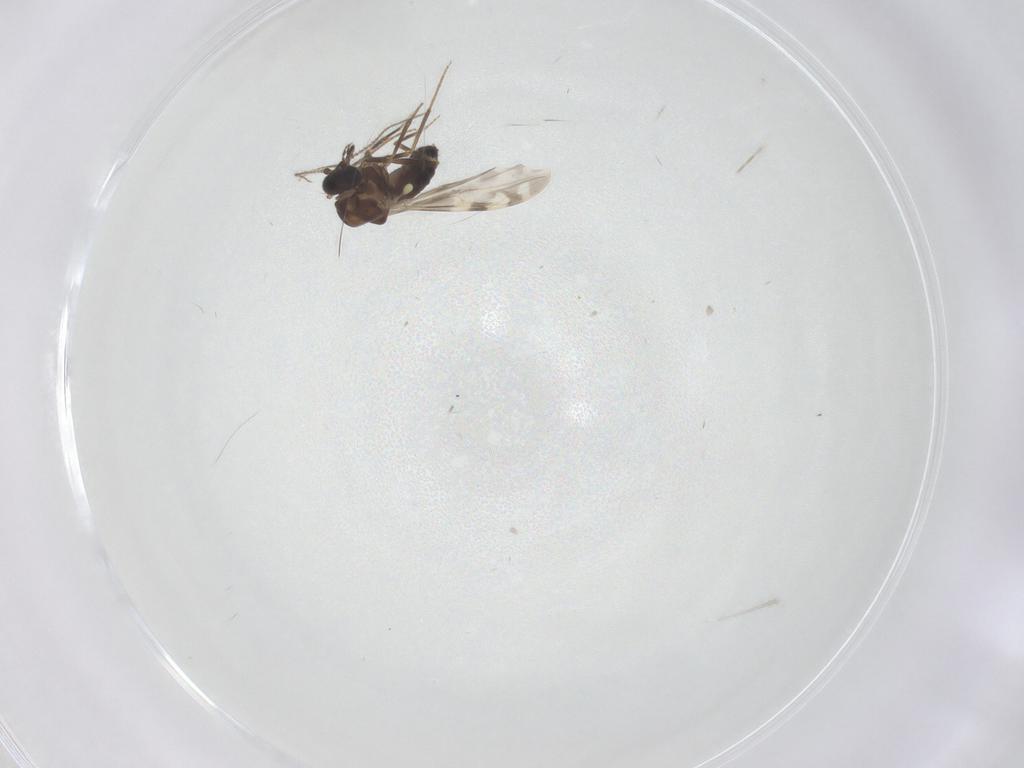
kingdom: Animalia
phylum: Arthropoda
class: Insecta
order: Diptera
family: Ceratopogonidae
